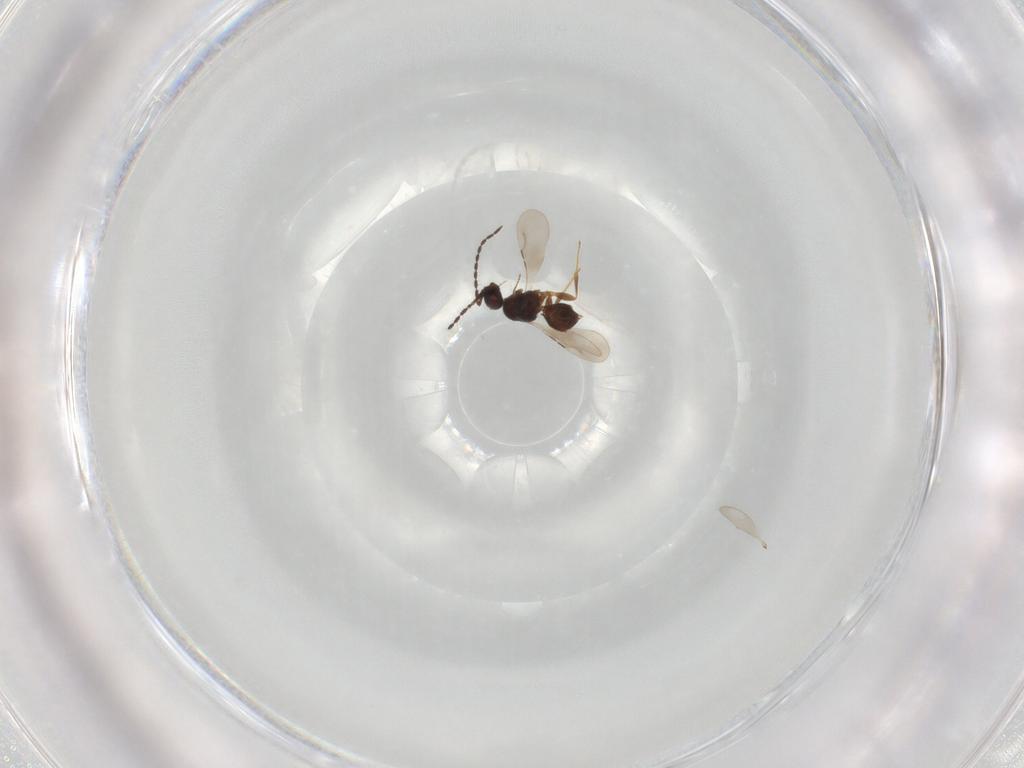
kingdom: Animalia
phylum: Arthropoda
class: Insecta
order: Hymenoptera
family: Ceraphronidae
